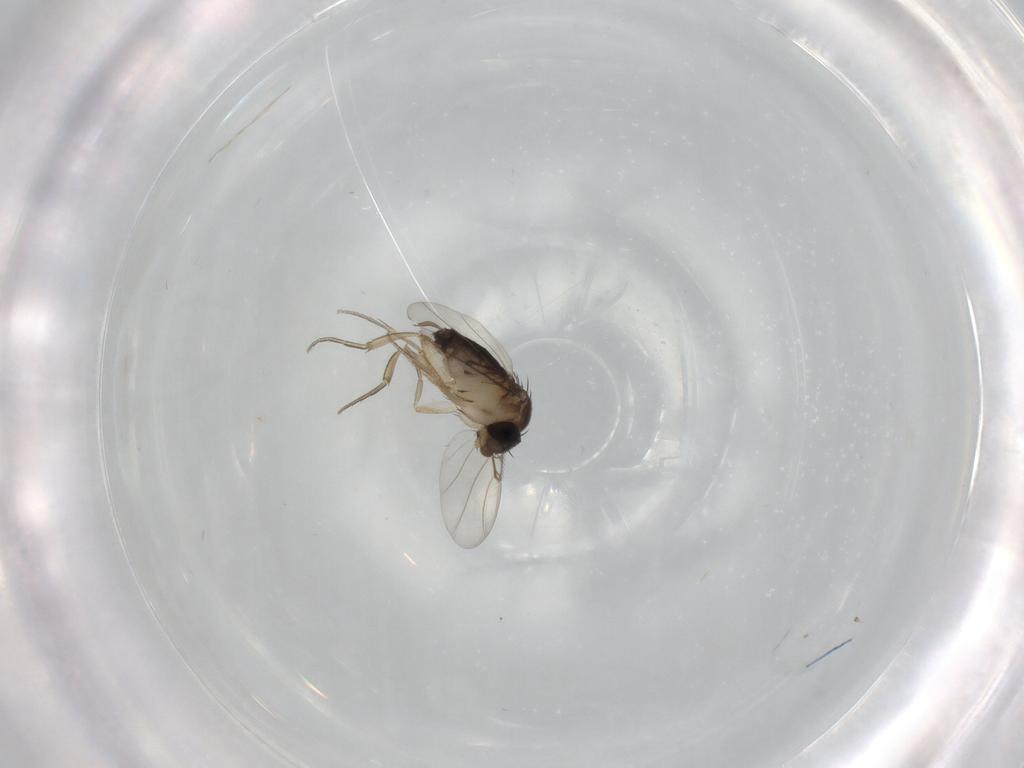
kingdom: Animalia
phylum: Arthropoda
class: Insecta
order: Diptera
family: Phoridae
